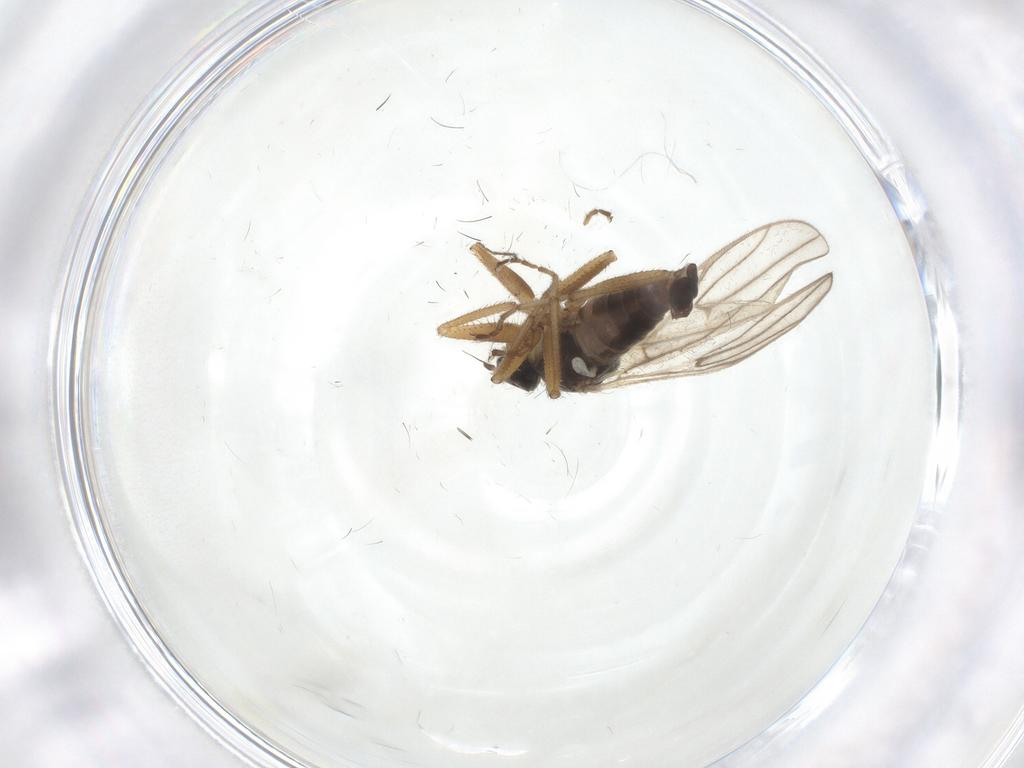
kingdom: Animalia
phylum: Arthropoda
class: Insecta
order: Diptera
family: Hybotidae
